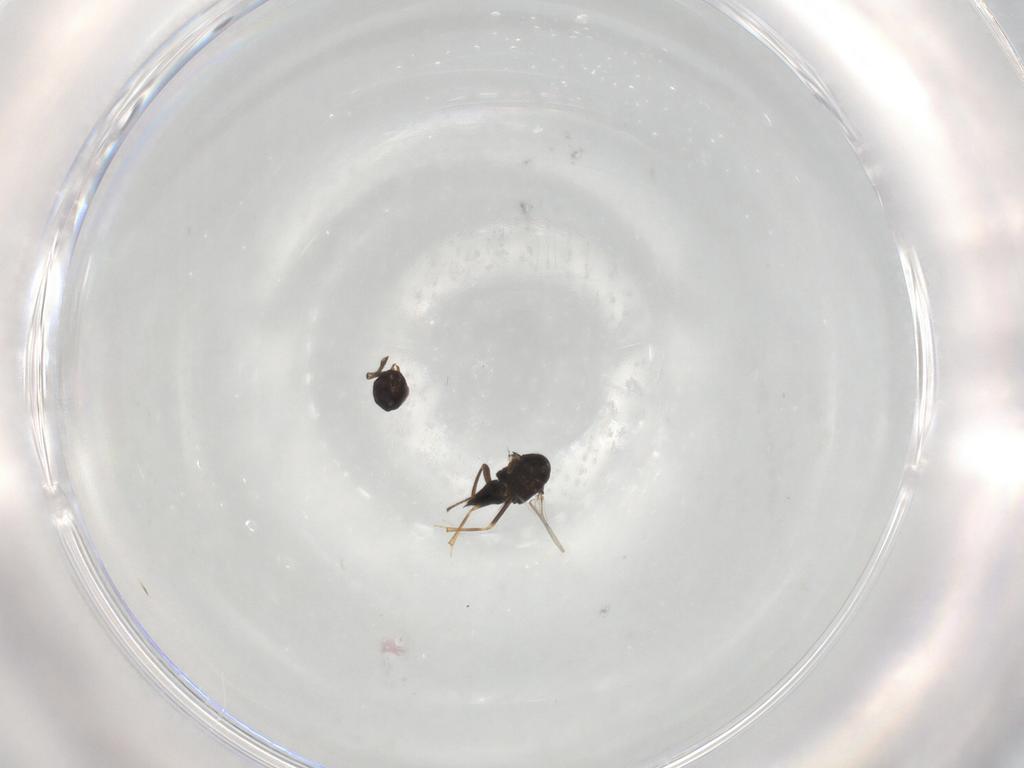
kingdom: Animalia
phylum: Arthropoda
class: Insecta
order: Hymenoptera
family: Encyrtidae
